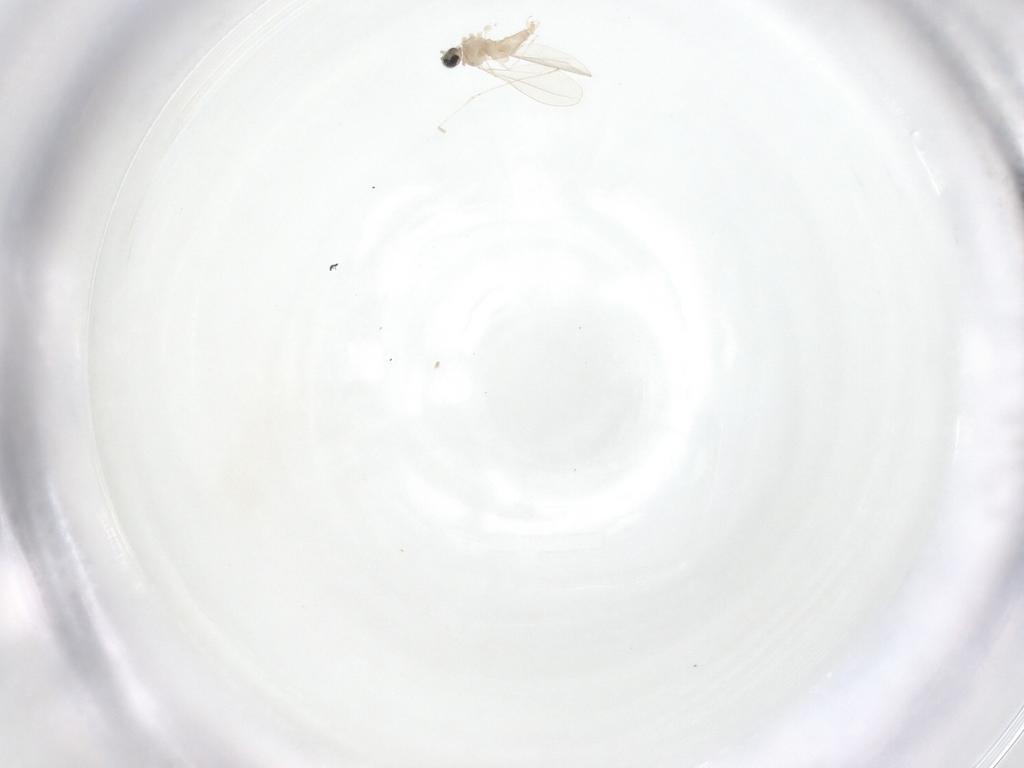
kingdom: Animalia
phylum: Arthropoda
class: Insecta
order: Diptera
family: Cecidomyiidae
